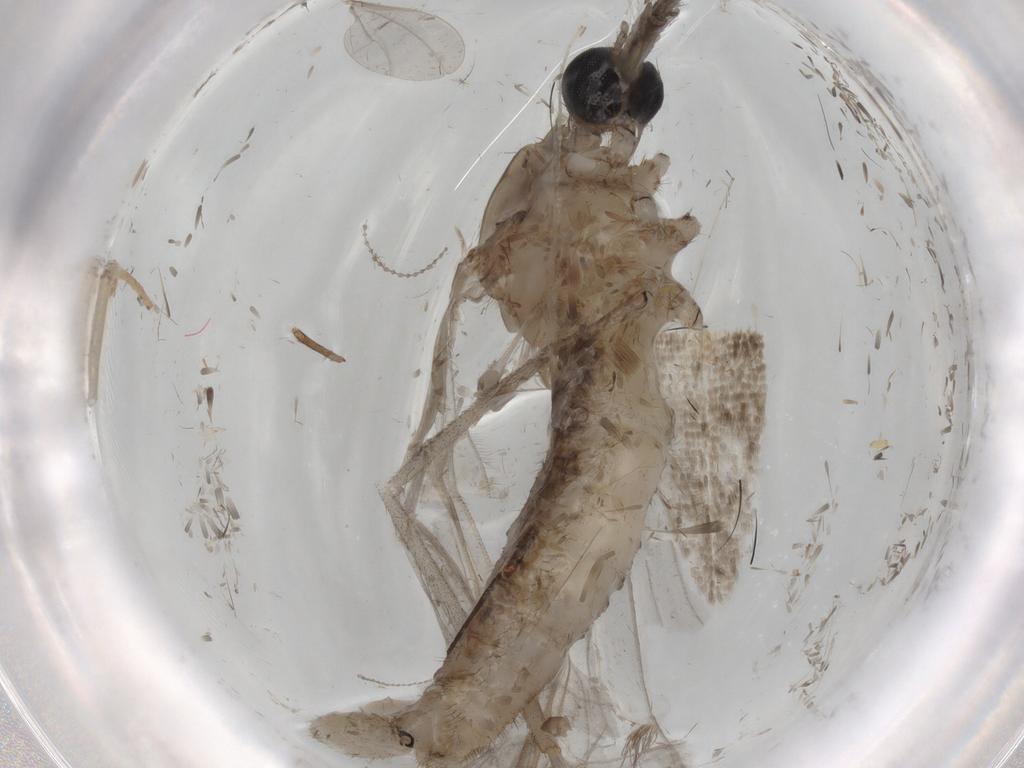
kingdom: Animalia
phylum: Arthropoda
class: Insecta
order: Diptera
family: Limoniidae
